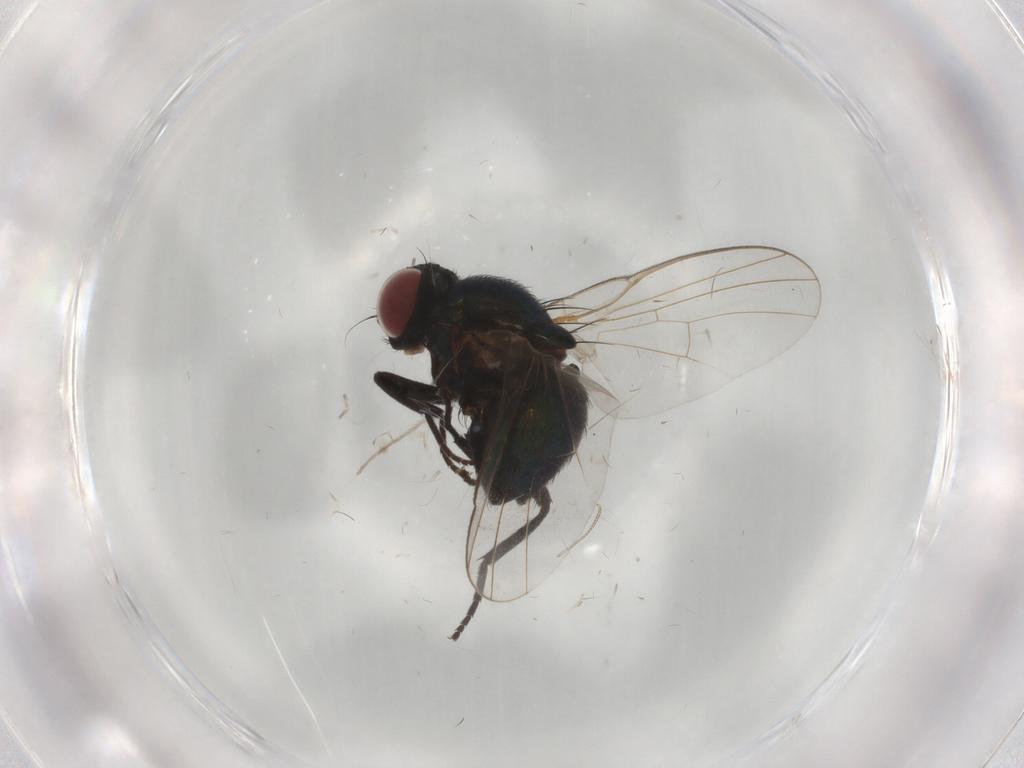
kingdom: Animalia
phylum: Arthropoda
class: Insecta
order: Diptera
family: Agromyzidae
